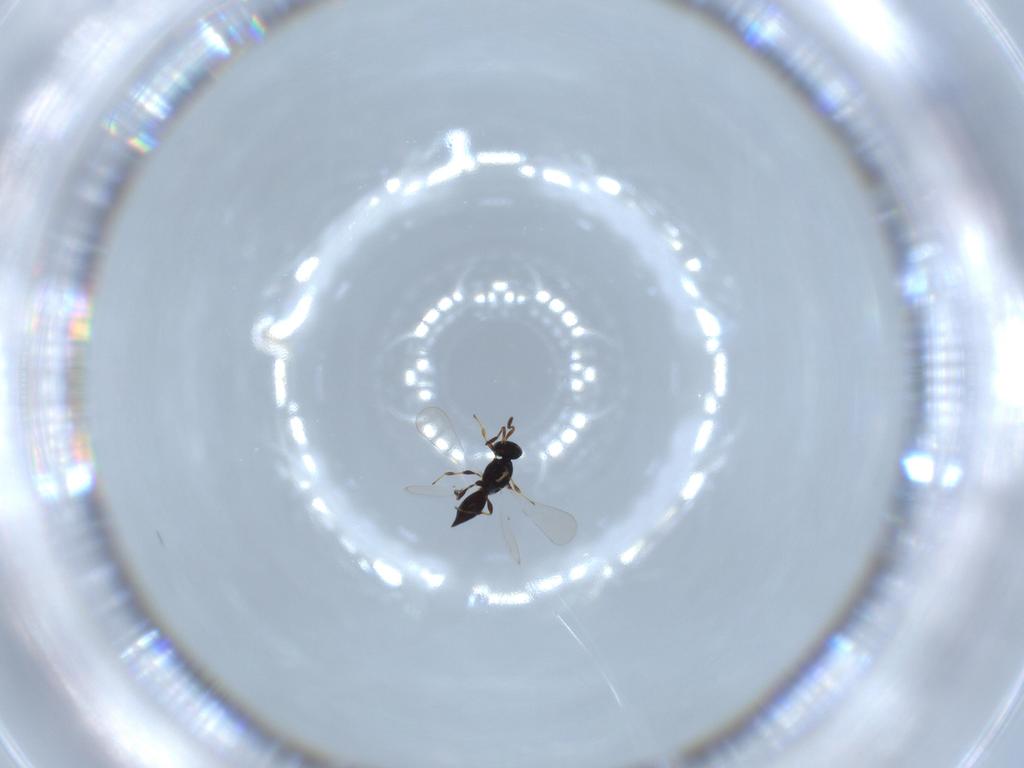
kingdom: Animalia
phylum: Arthropoda
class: Insecta
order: Hymenoptera
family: Platygastridae
